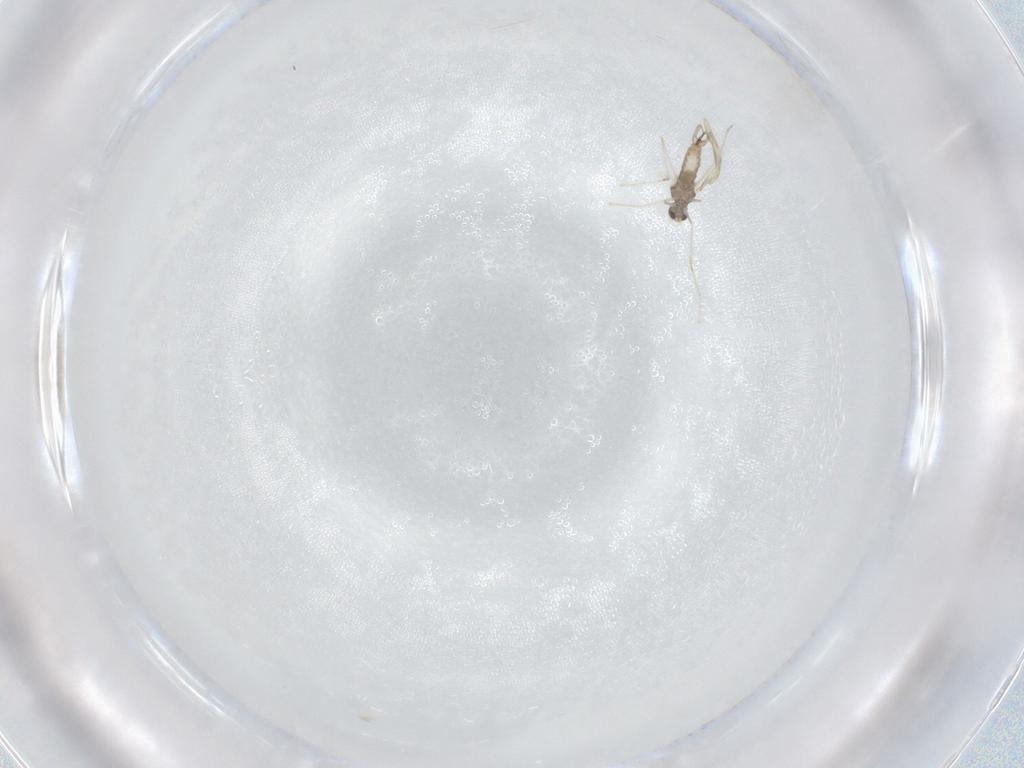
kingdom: Animalia
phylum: Arthropoda
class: Insecta
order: Diptera
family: Dolichopodidae
